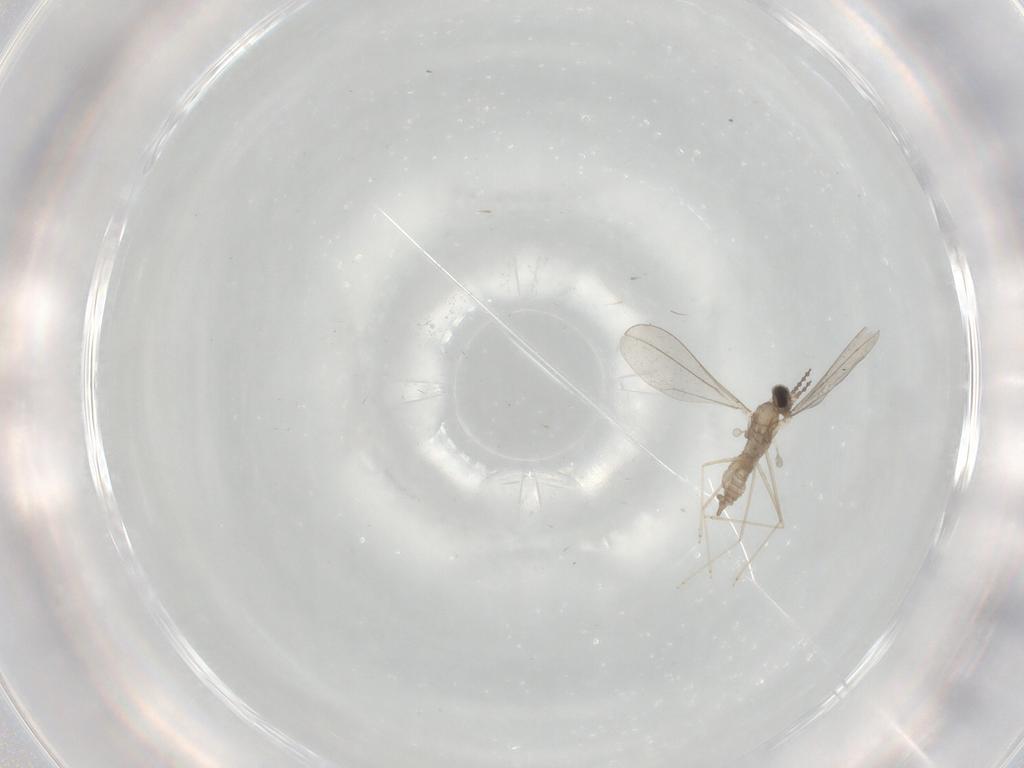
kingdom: Animalia
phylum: Arthropoda
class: Insecta
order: Diptera
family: Cecidomyiidae
